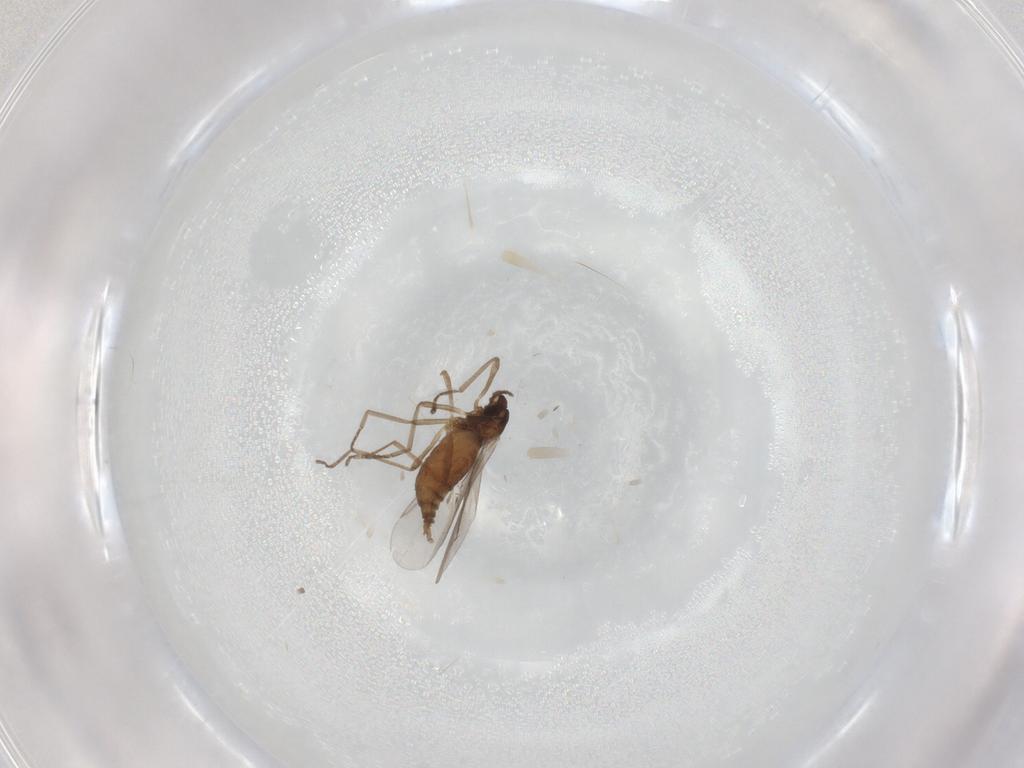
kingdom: Animalia
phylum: Arthropoda
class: Insecta
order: Diptera
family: Cecidomyiidae
